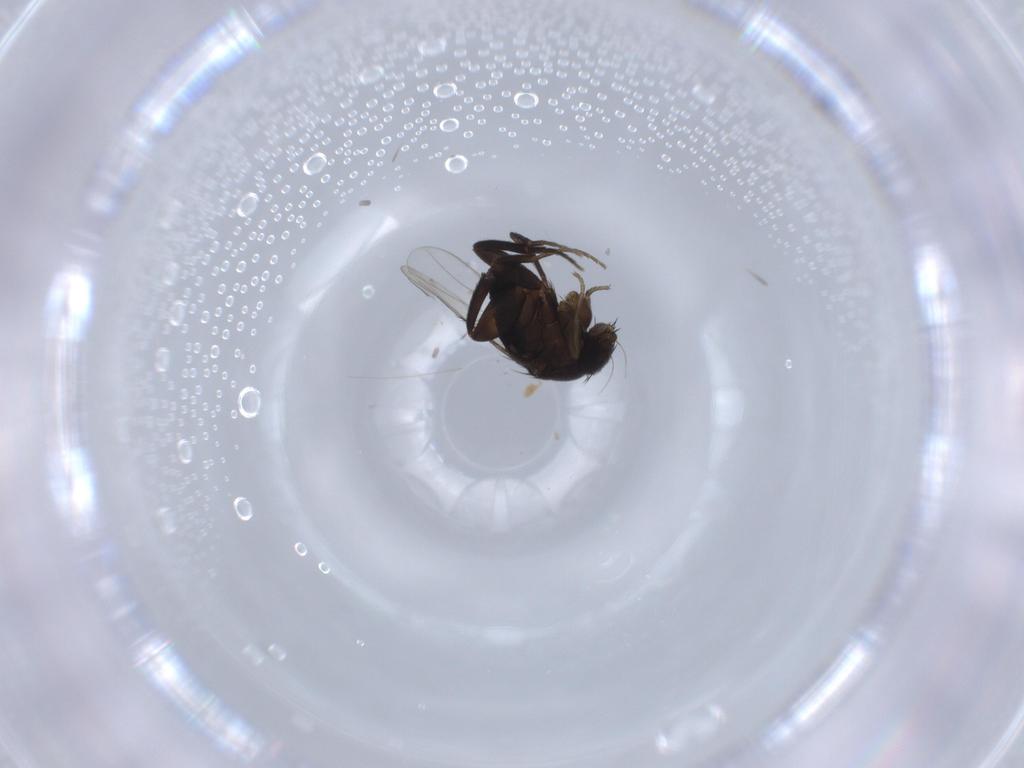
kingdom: Animalia
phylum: Arthropoda
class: Insecta
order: Diptera
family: Phoridae
